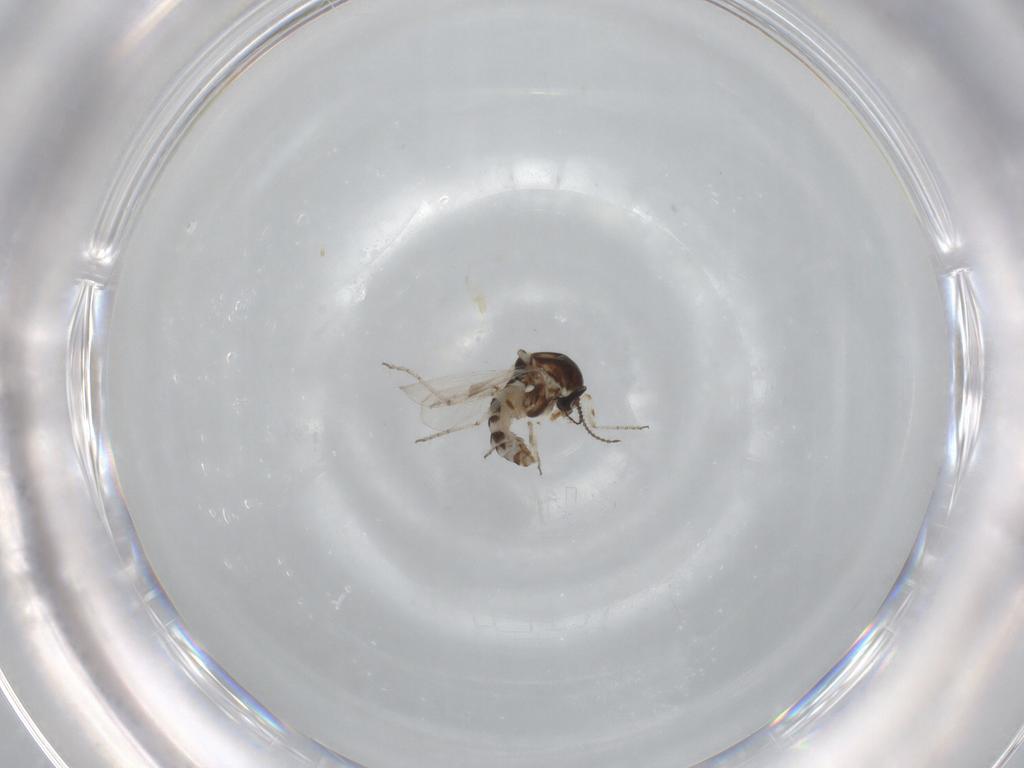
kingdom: Animalia
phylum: Arthropoda
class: Insecta
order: Diptera
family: Ceratopogonidae
